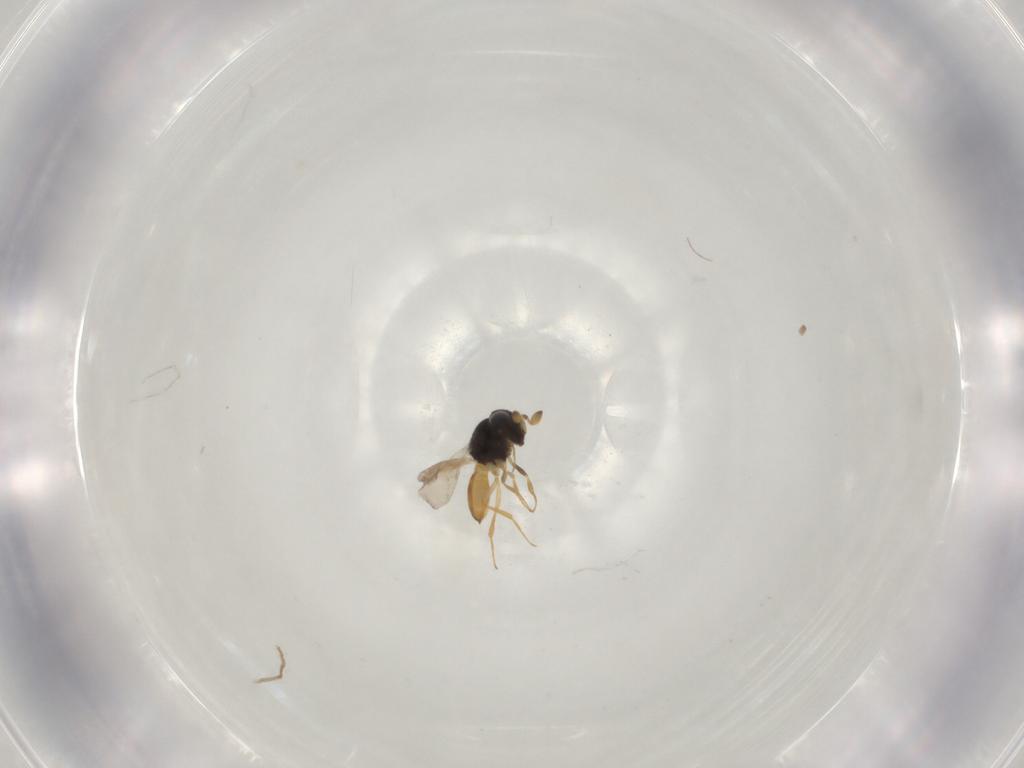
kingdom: Animalia
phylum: Arthropoda
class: Insecta
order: Hymenoptera
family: Scelionidae
